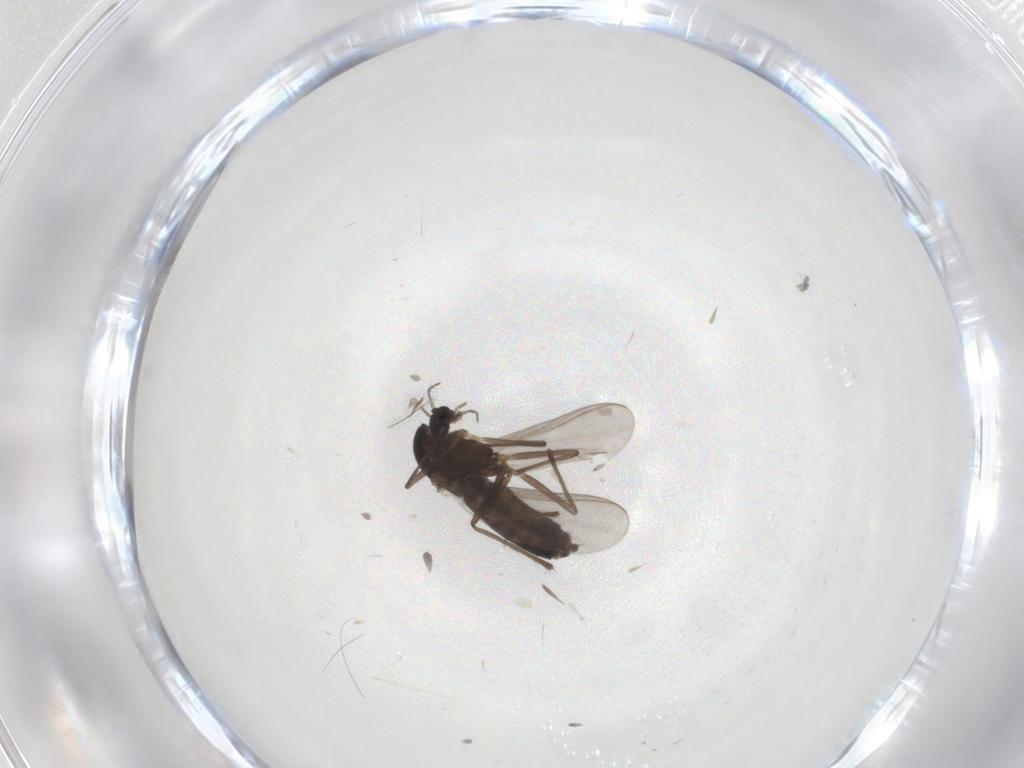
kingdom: Animalia
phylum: Arthropoda
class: Insecta
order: Diptera
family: Chironomidae
